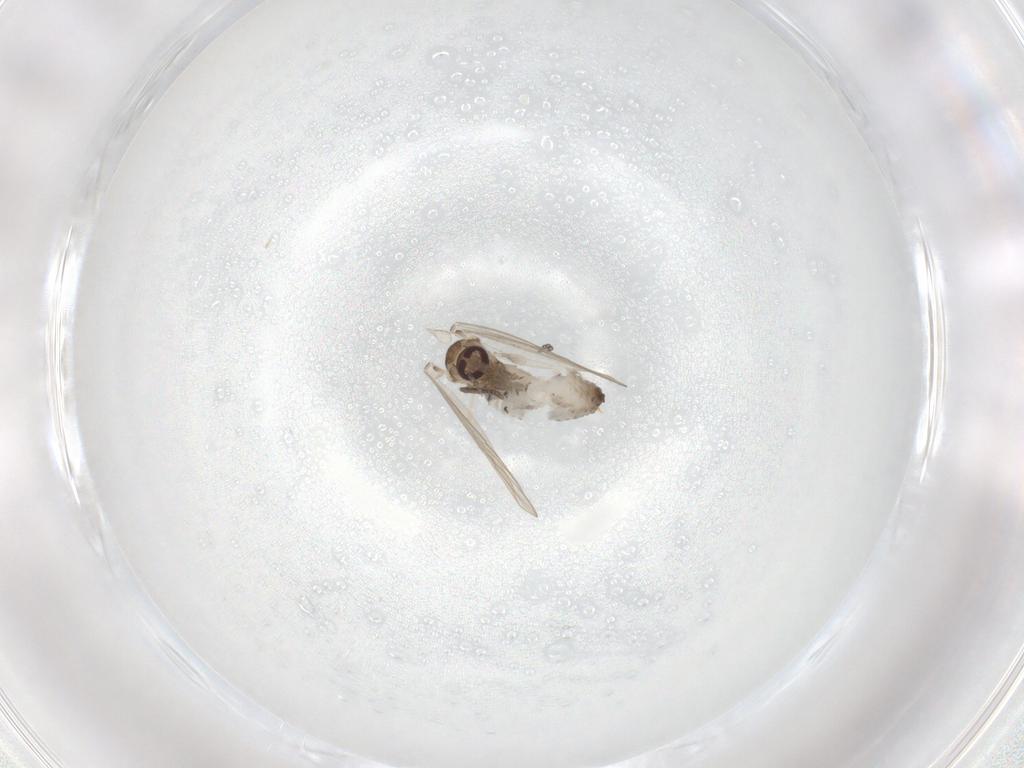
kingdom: Animalia
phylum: Arthropoda
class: Insecta
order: Diptera
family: Psychodidae
